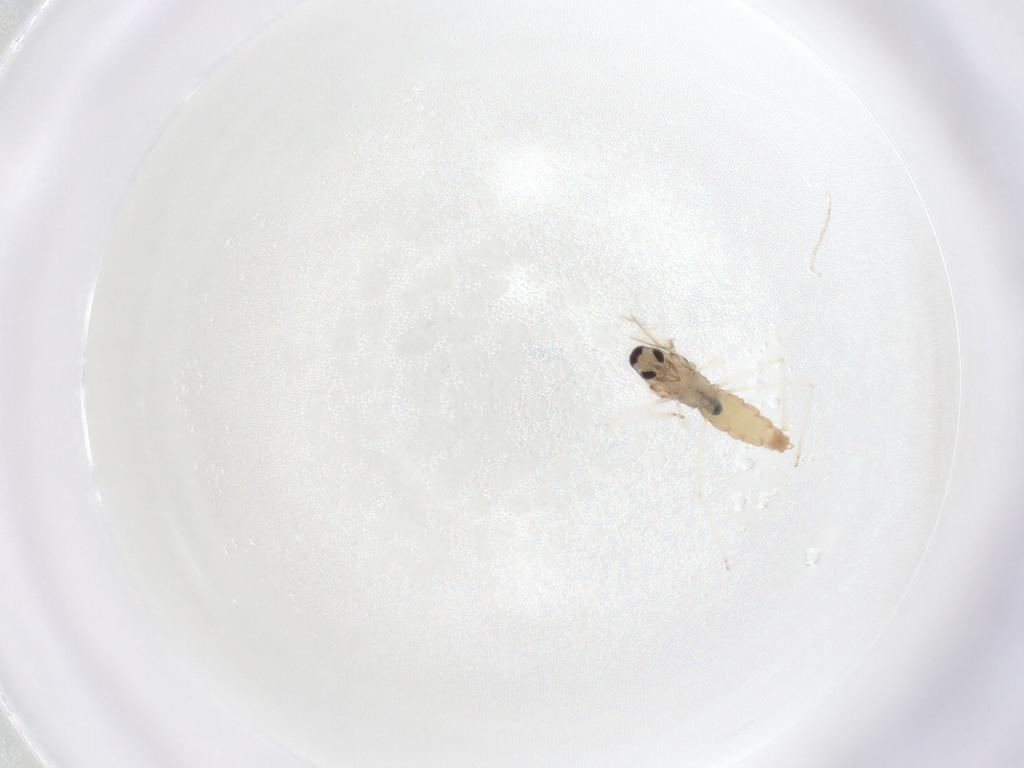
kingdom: Animalia
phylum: Arthropoda
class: Insecta
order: Diptera
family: Cecidomyiidae
